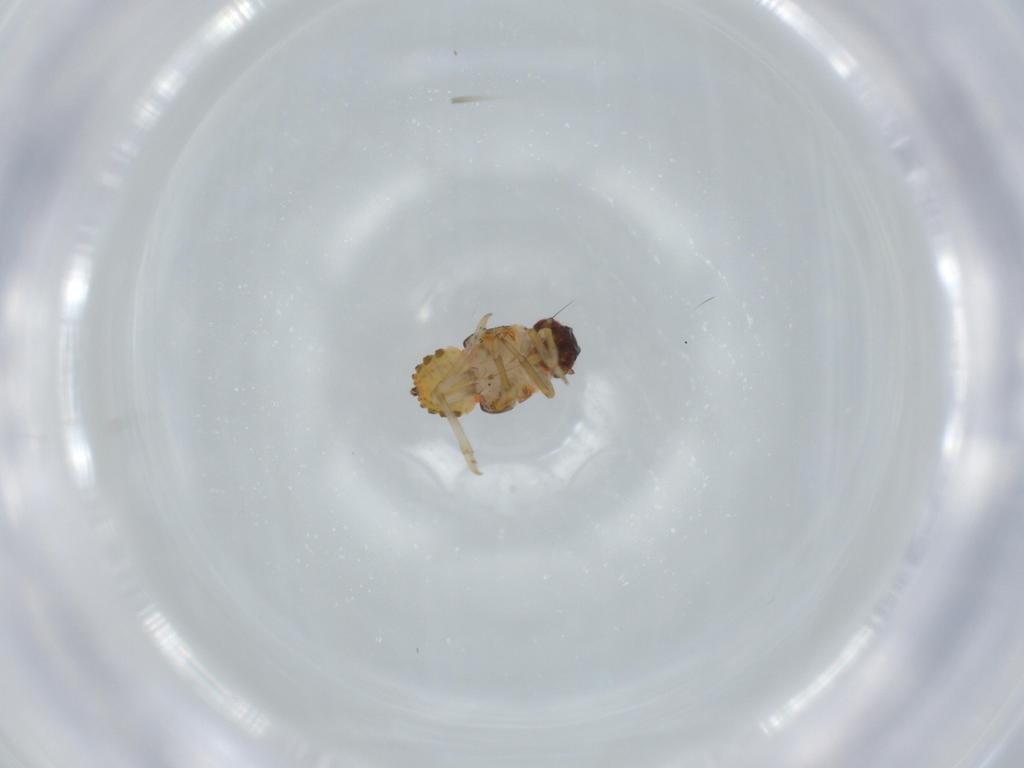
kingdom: Animalia
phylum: Arthropoda
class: Insecta
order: Hemiptera
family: Issidae
